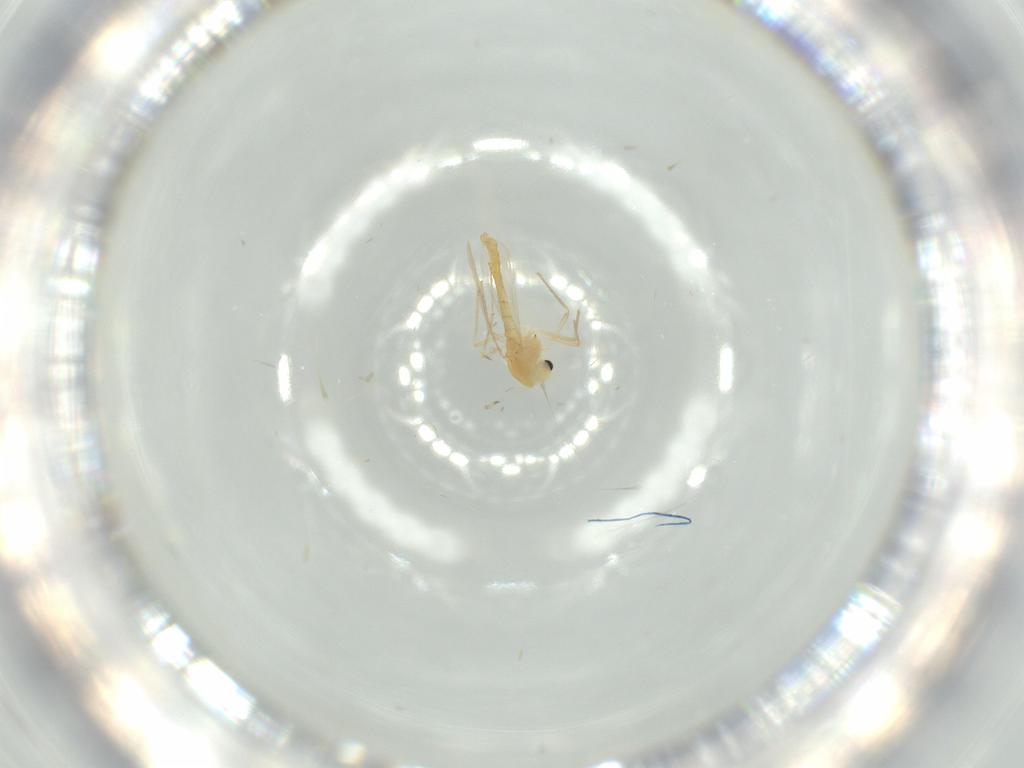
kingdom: Animalia
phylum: Arthropoda
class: Insecta
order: Diptera
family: Chironomidae
